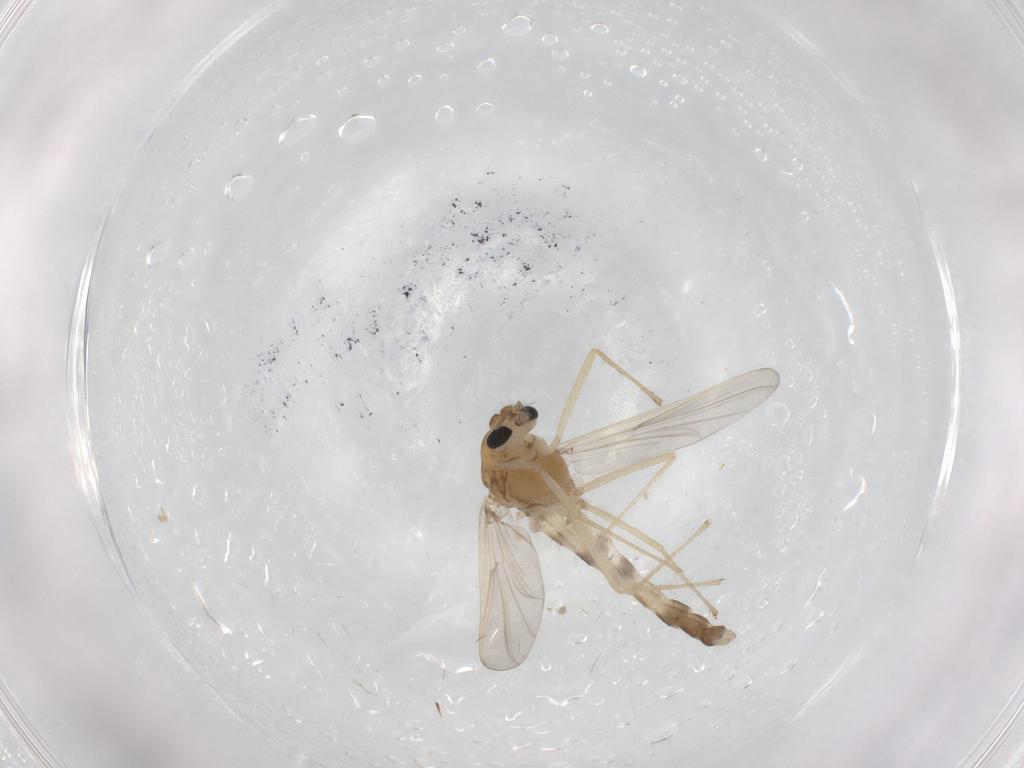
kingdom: Animalia
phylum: Arthropoda
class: Insecta
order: Diptera
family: Chironomidae
